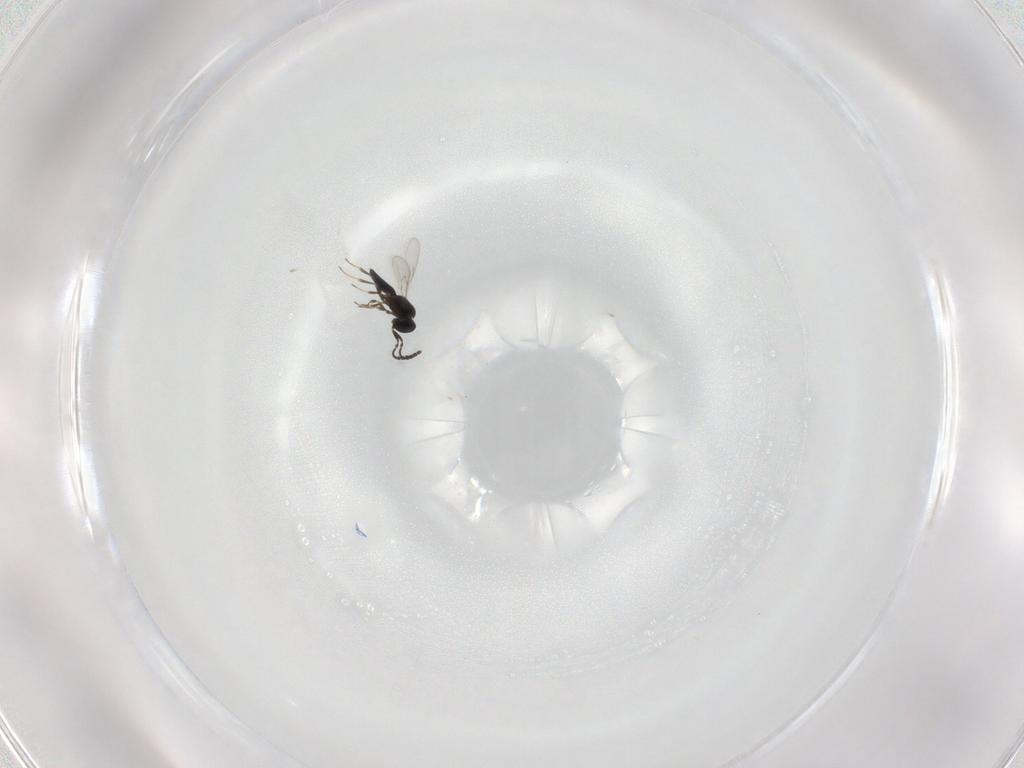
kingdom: Animalia
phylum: Arthropoda
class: Insecta
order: Hymenoptera
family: Scelionidae
